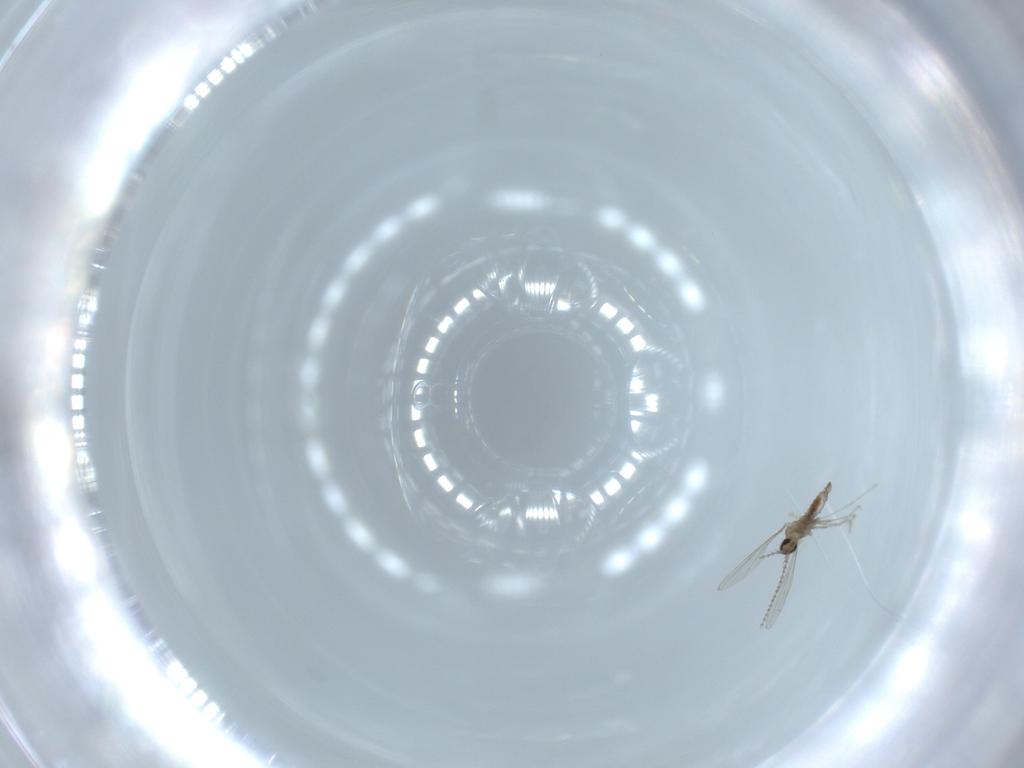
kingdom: Animalia
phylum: Arthropoda
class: Insecta
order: Diptera
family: Cecidomyiidae
